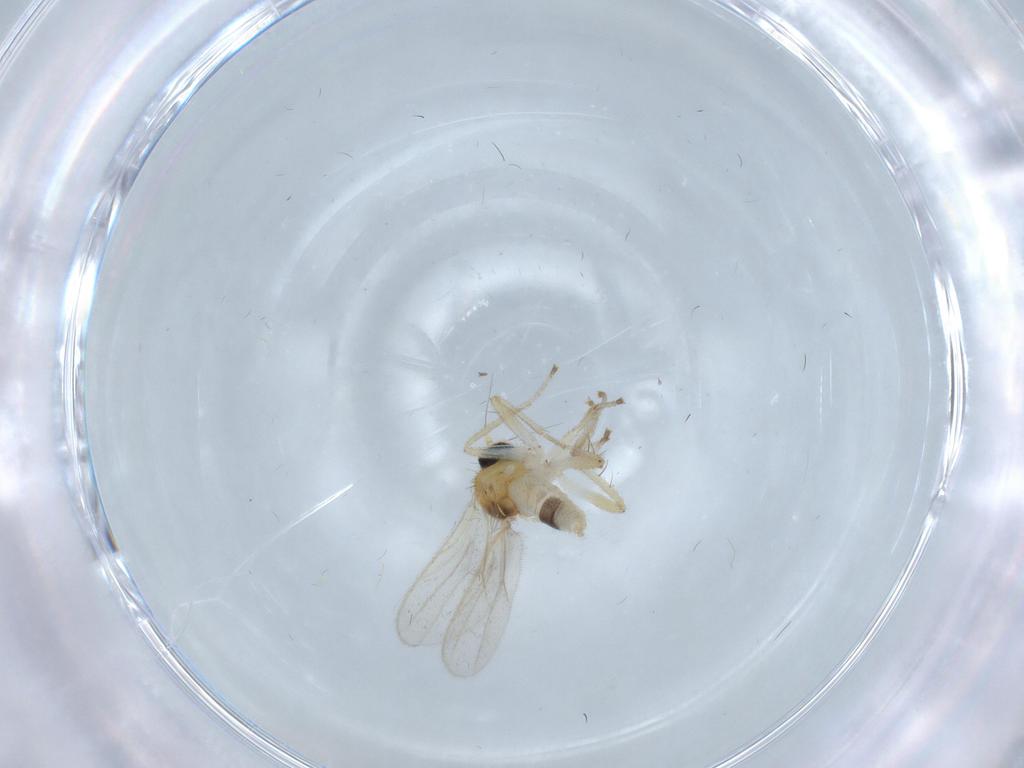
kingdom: Animalia
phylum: Arthropoda
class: Insecta
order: Diptera
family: Hybotidae
